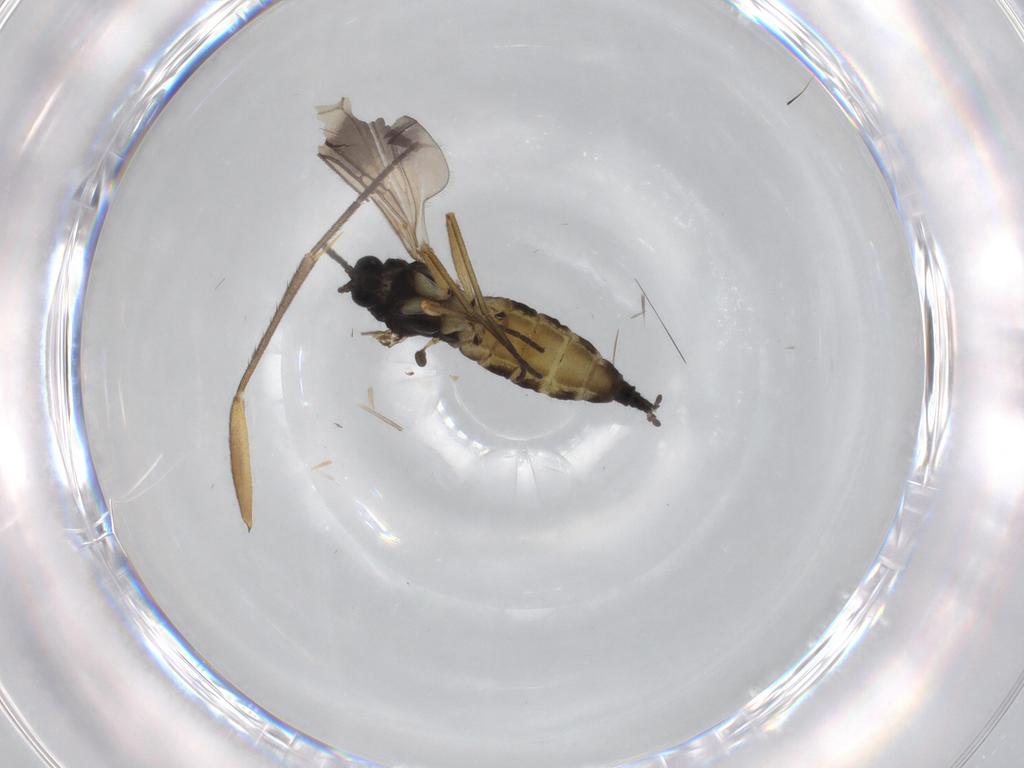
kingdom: Animalia
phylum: Arthropoda
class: Insecta
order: Diptera
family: Sciaridae
